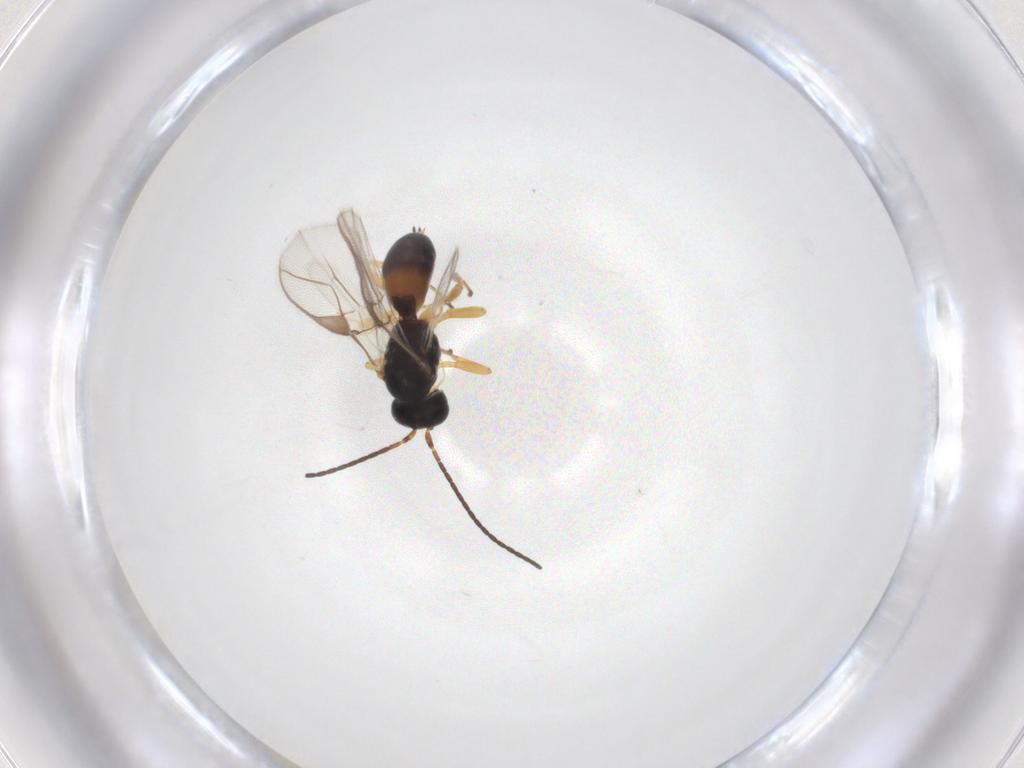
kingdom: Animalia
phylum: Arthropoda
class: Insecta
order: Hymenoptera
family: Braconidae
